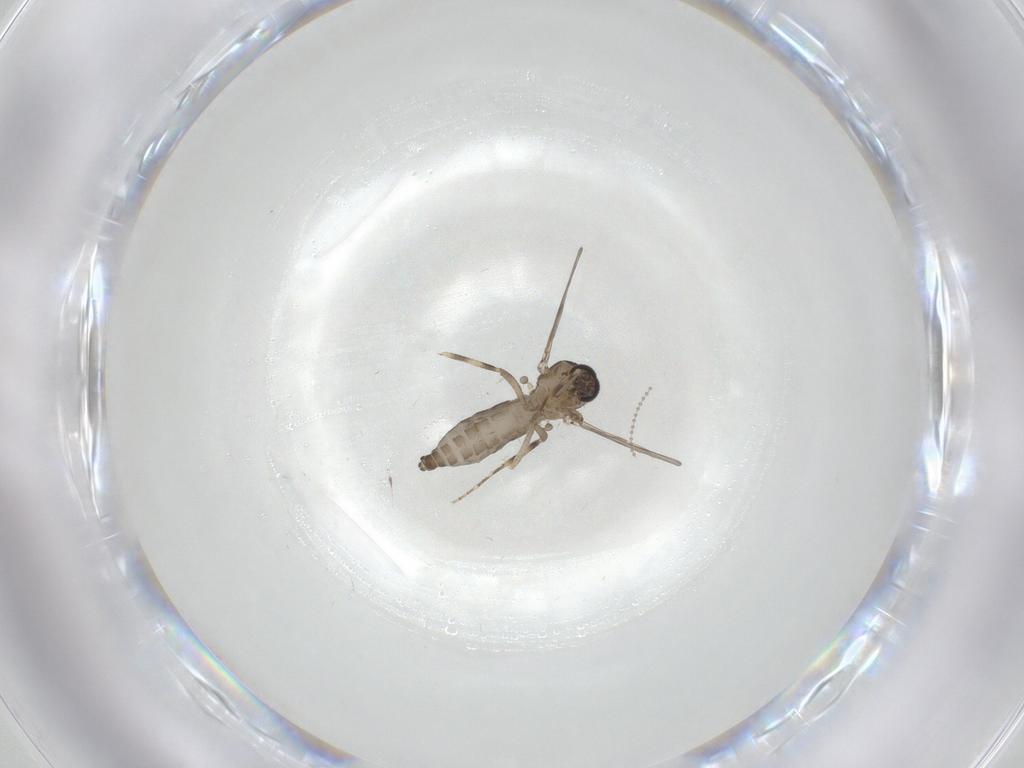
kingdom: Animalia
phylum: Arthropoda
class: Insecta
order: Diptera
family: Ceratopogonidae
